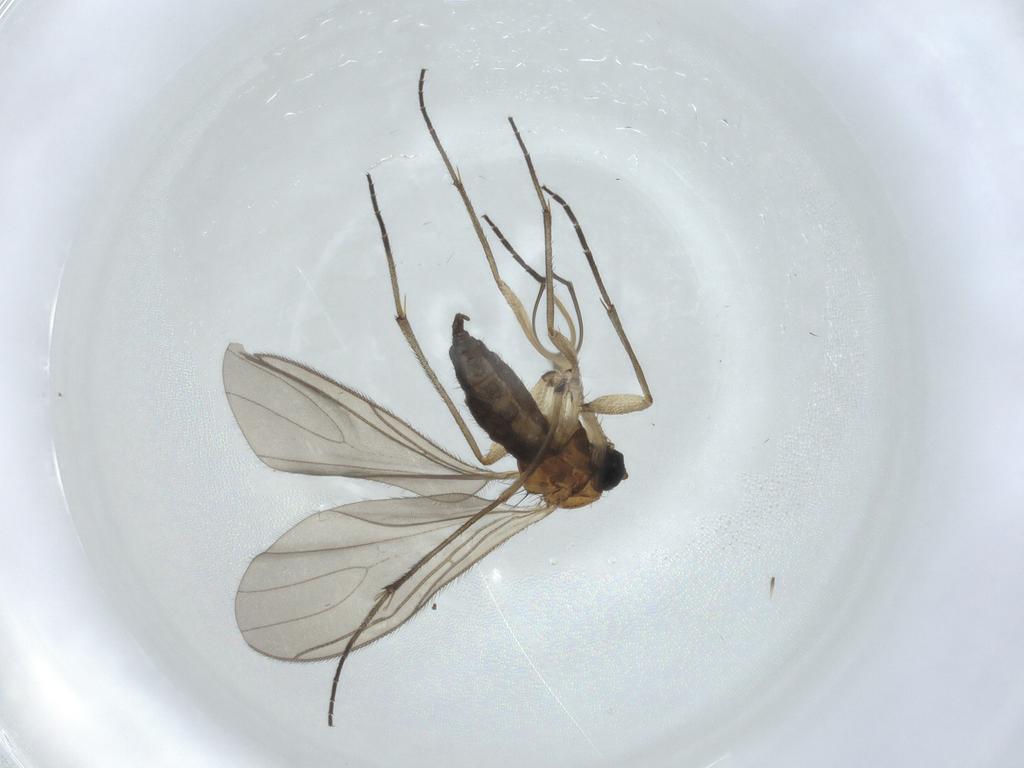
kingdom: Animalia
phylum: Arthropoda
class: Insecta
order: Diptera
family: Sciaridae
